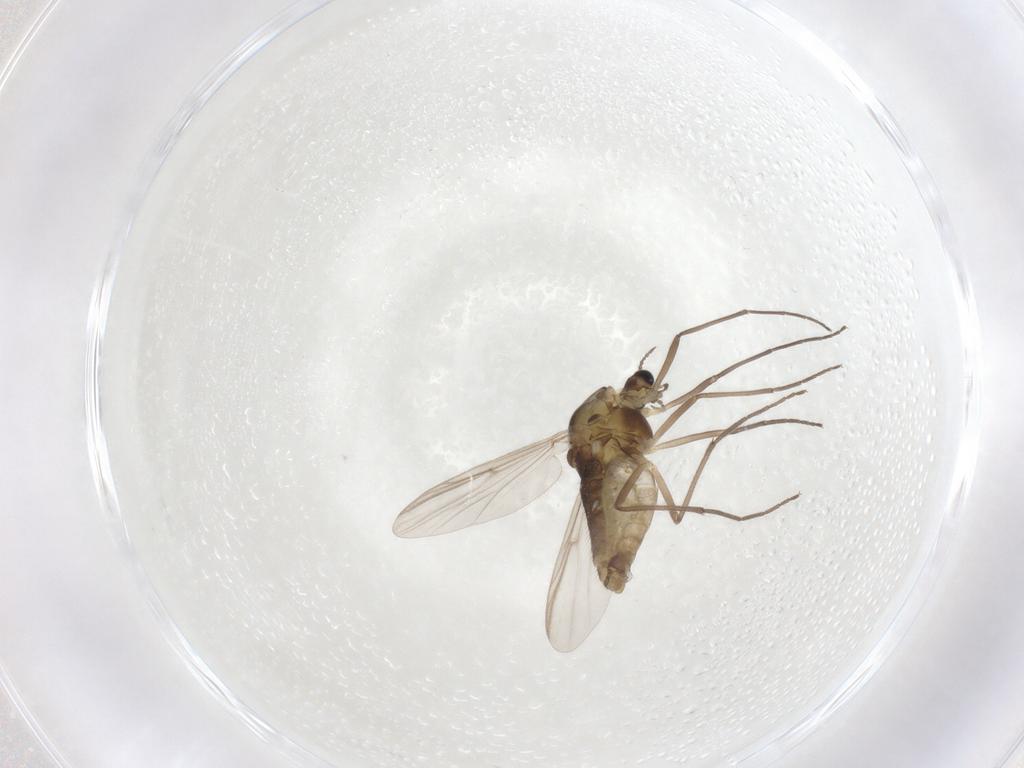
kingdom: Animalia
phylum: Arthropoda
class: Insecta
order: Diptera
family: Chironomidae
